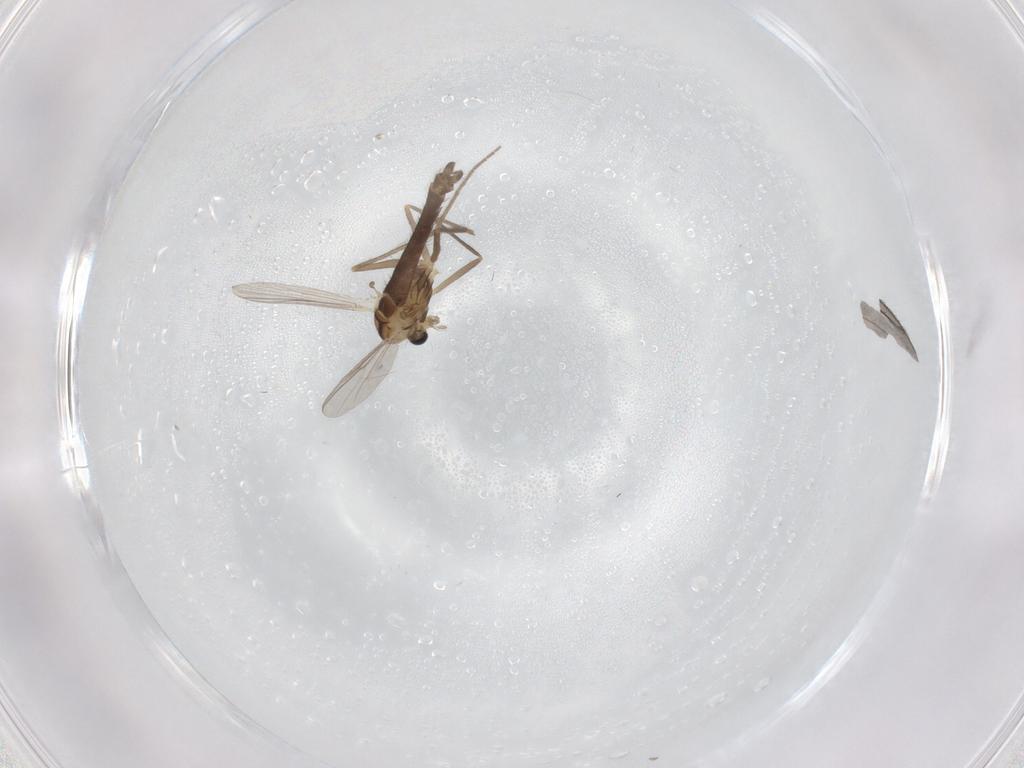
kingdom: Animalia
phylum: Arthropoda
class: Insecta
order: Diptera
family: Chironomidae
